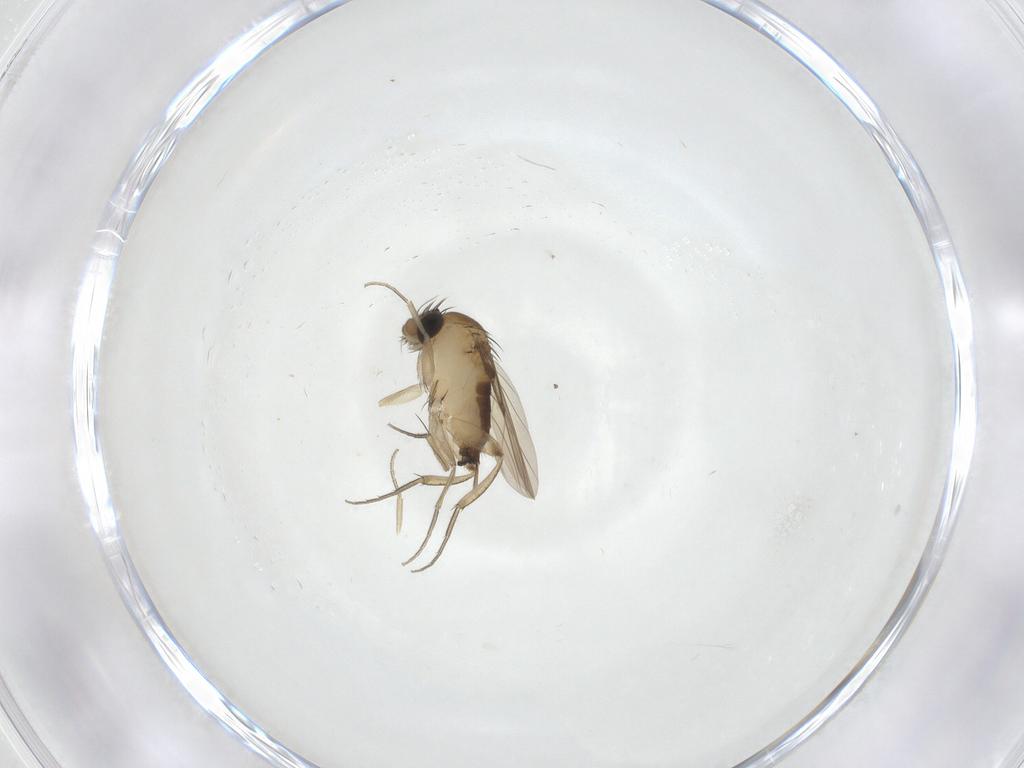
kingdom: Animalia
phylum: Arthropoda
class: Insecta
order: Diptera
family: Phoridae
